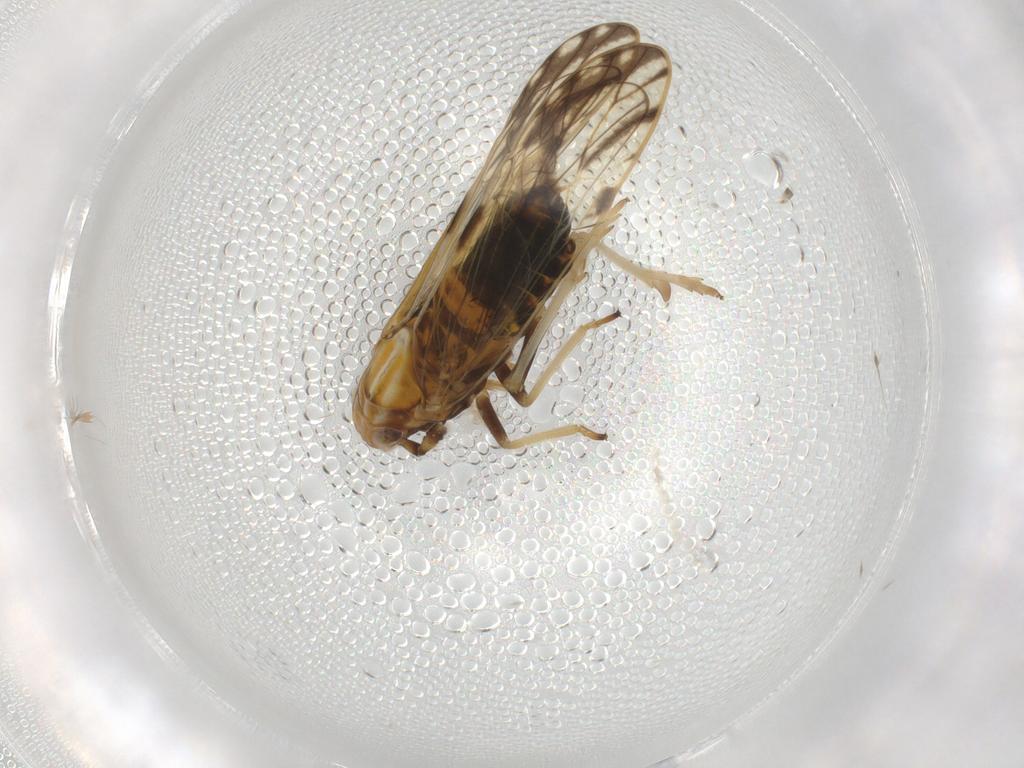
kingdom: Animalia
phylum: Arthropoda
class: Insecta
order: Hemiptera
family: Delphacidae
